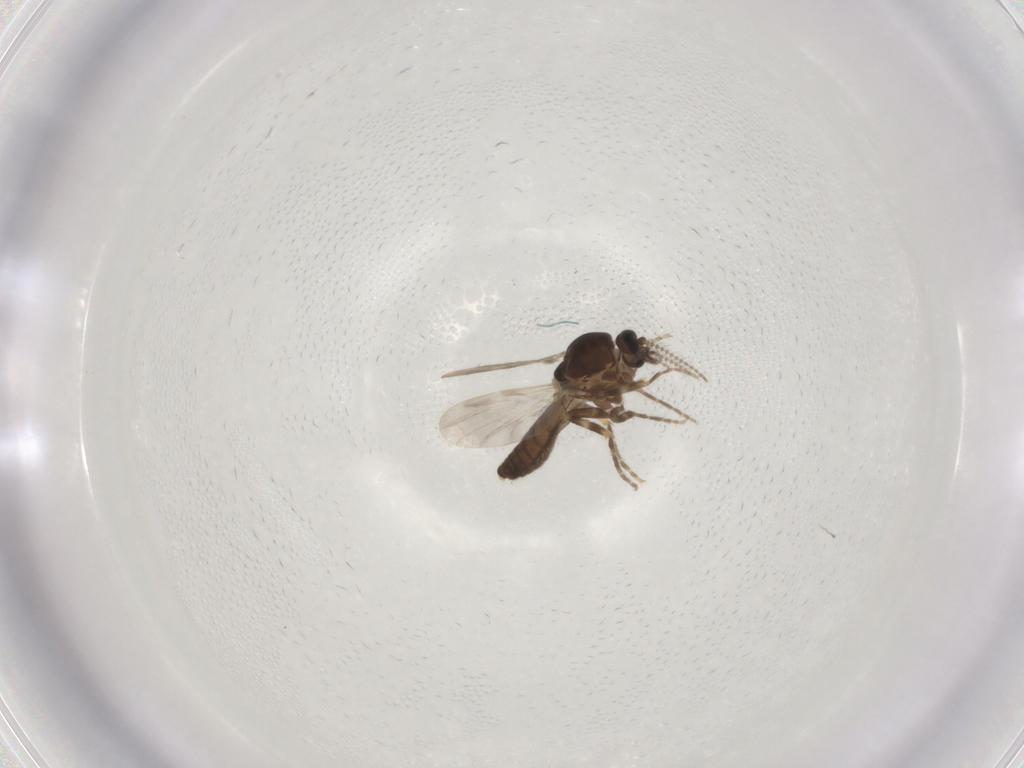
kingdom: Animalia
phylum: Arthropoda
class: Insecta
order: Diptera
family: Ceratopogonidae
